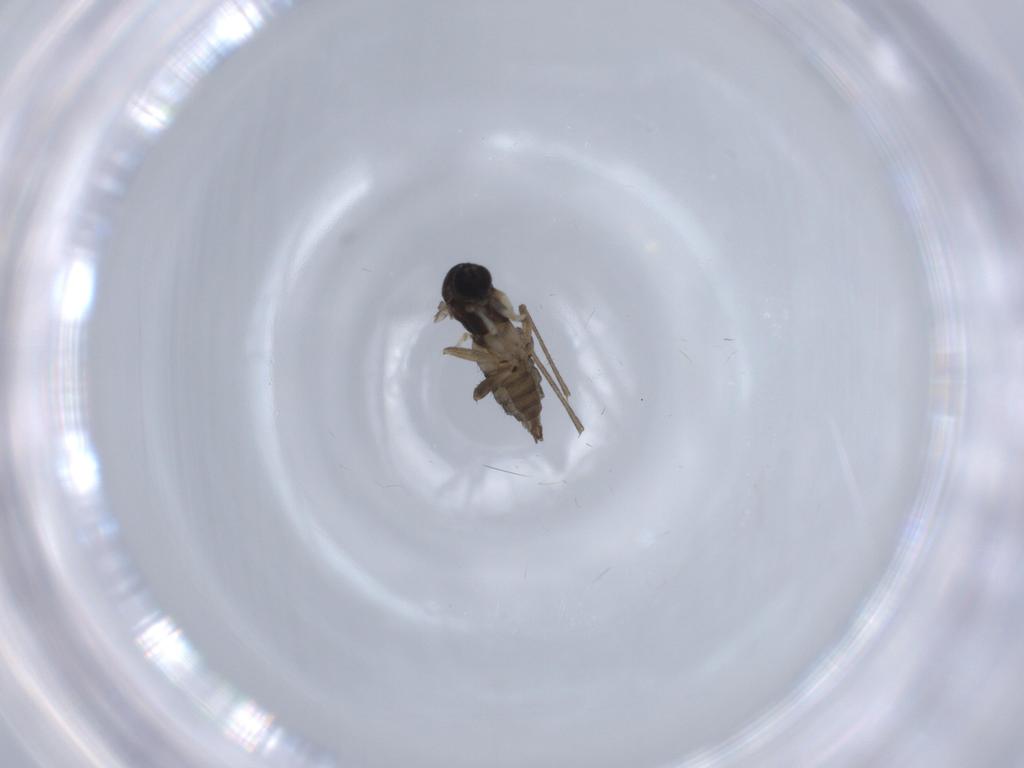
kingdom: Animalia
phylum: Arthropoda
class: Insecta
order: Diptera
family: Sciaridae
